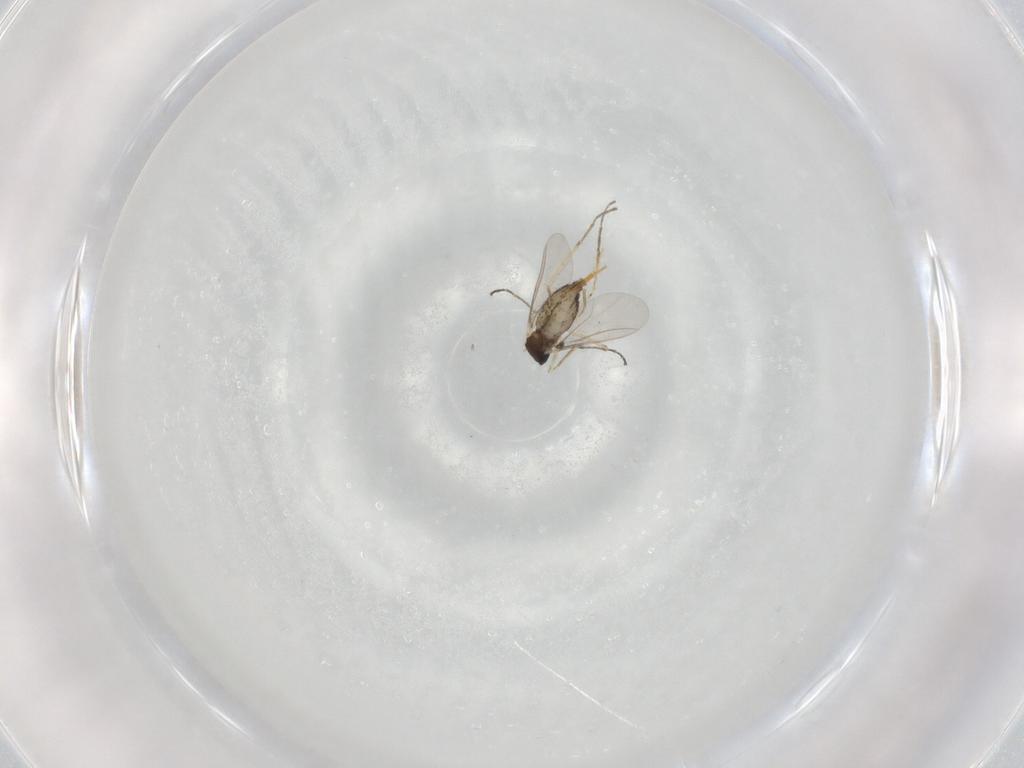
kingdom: Animalia
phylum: Arthropoda
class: Insecta
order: Diptera
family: Cecidomyiidae
